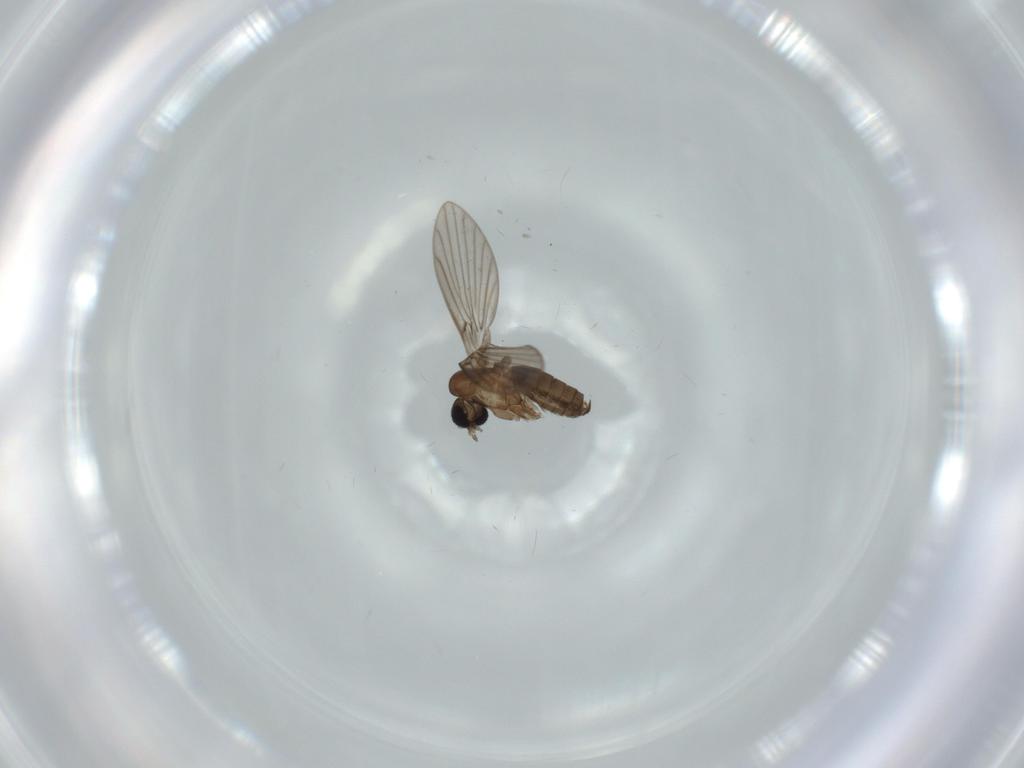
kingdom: Animalia
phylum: Arthropoda
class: Insecta
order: Diptera
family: Psychodidae
